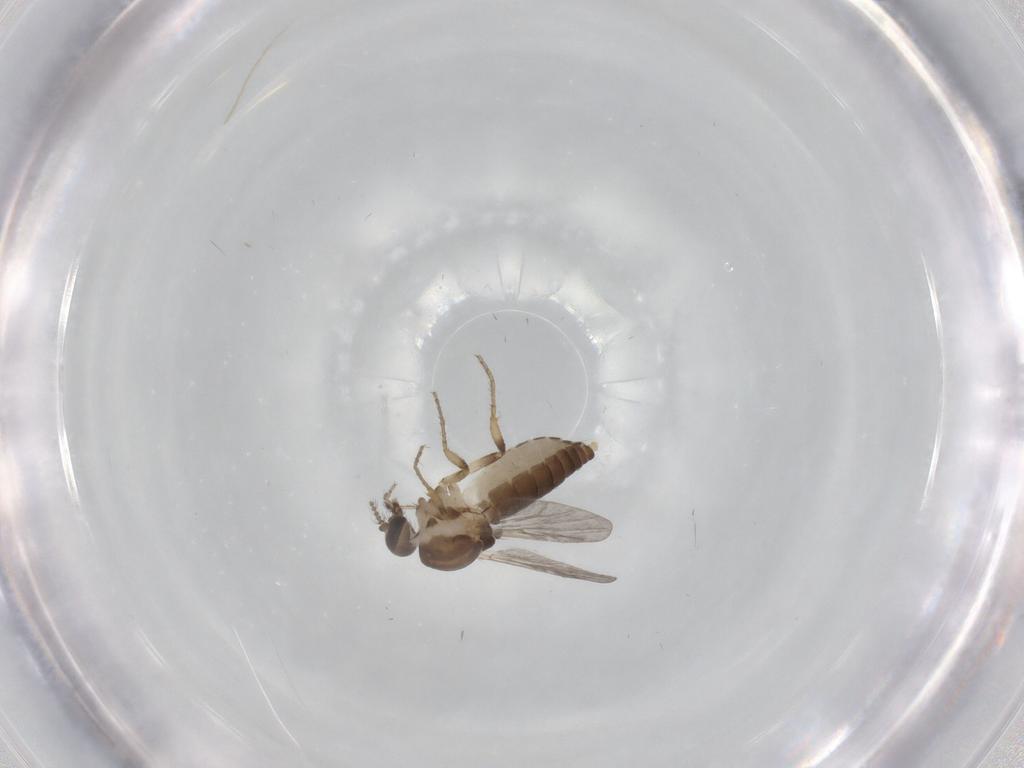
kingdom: Animalia
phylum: Arthropoda
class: Insecta
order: Diptera
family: Ceratopogonidae
